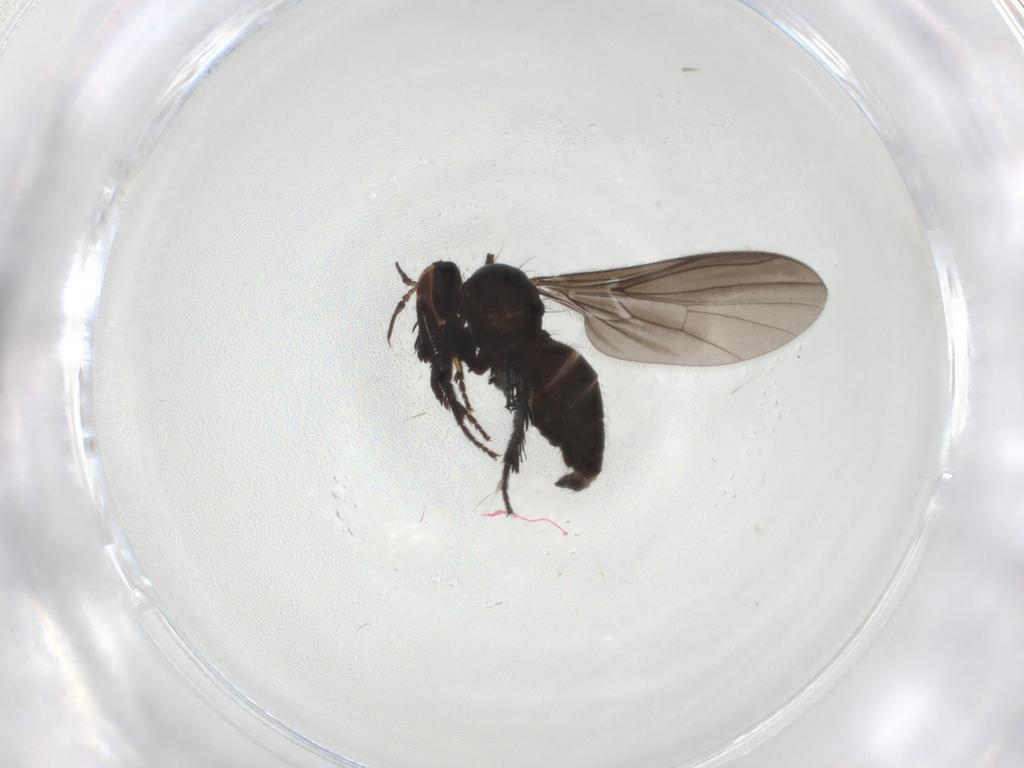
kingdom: Animalia
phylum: Arthropoda
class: Insecta
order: Diptera
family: Empididae
